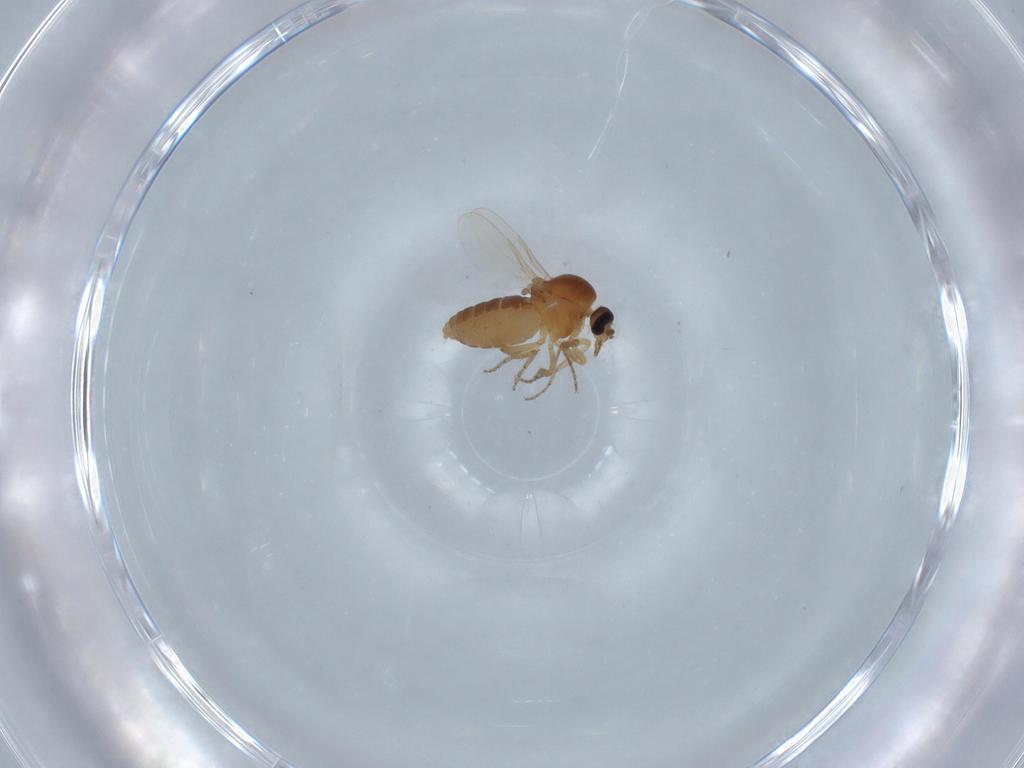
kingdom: Animalia
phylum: Arthropoda
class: Insecta
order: Diptera
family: Ceratopogonidae
